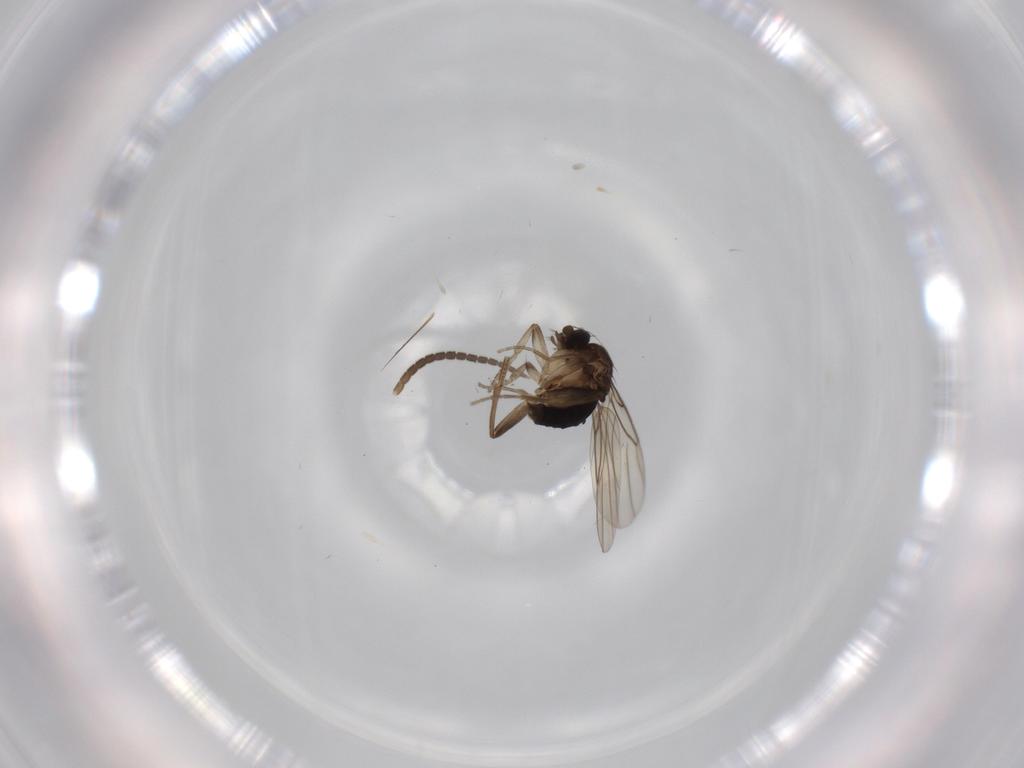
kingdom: Animalia
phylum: Arthropoda
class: Insecta
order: Diptera
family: Phoridae
